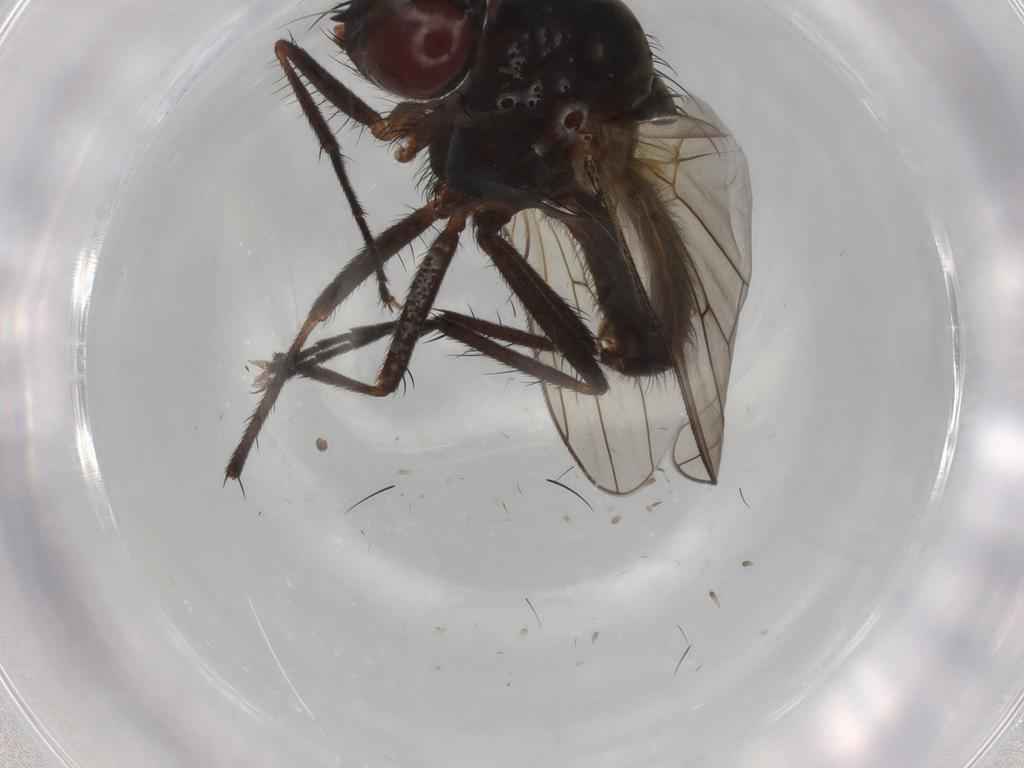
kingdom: Animalia
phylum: Arthropoda
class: Insecta
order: Diptera
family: Anthomyiidae
